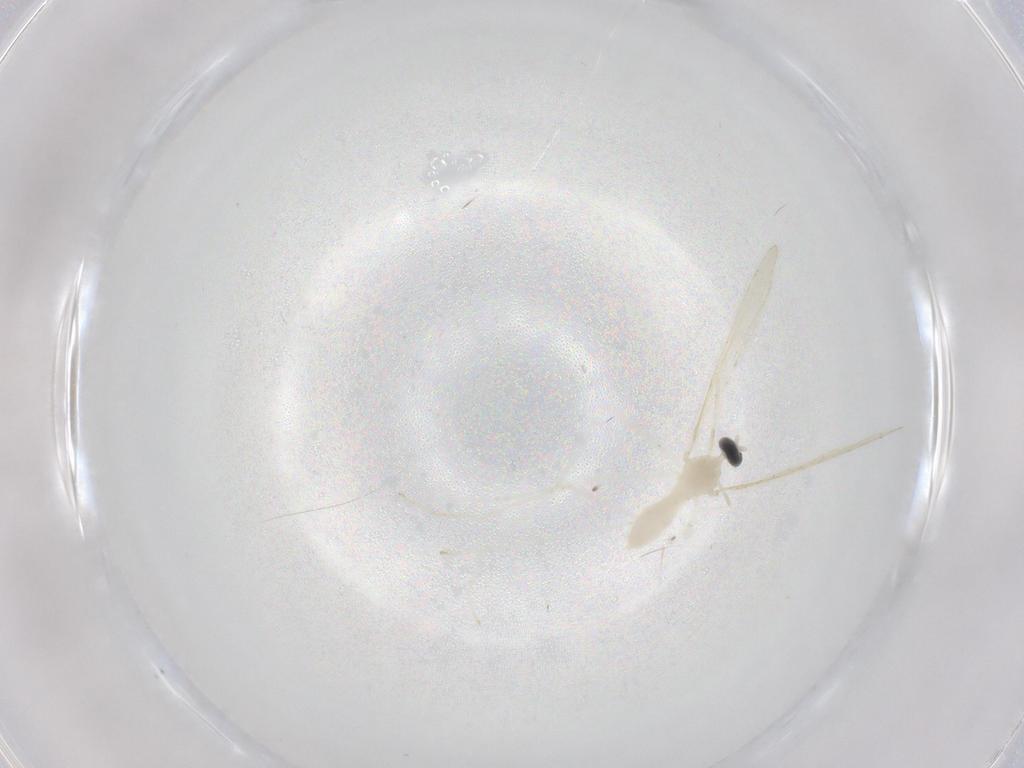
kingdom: Animalia
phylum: Arthropoda
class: Insecta
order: Diptera
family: Cecidomyiidae
